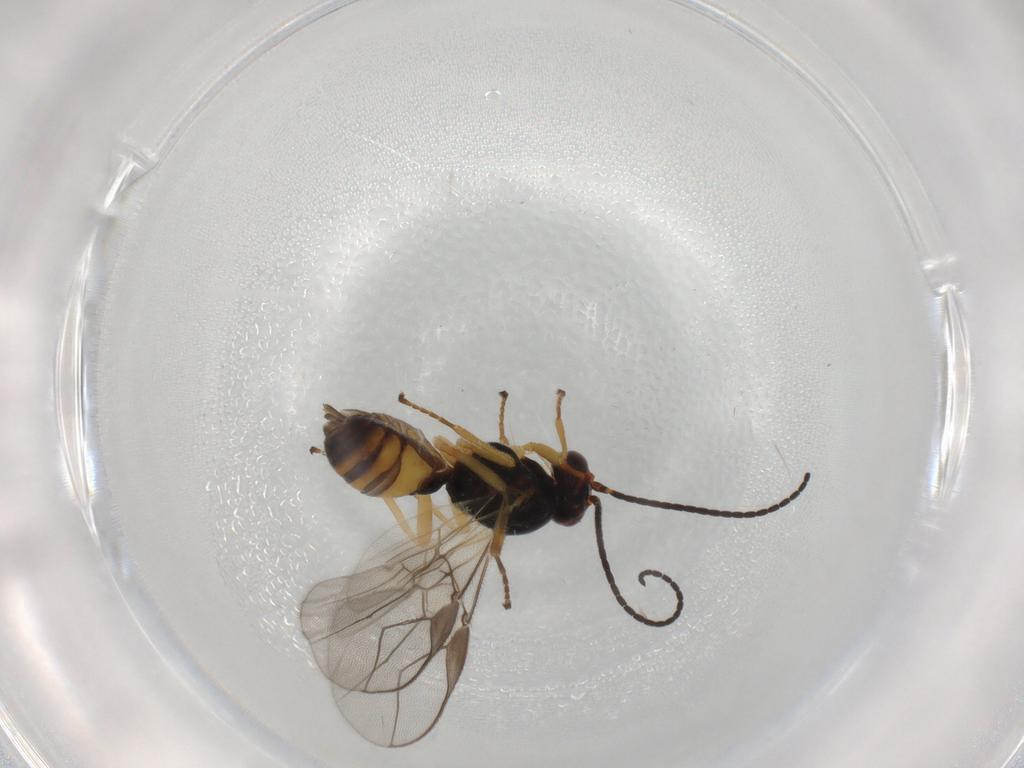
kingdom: Animalia
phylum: Arthropoda
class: Insecta
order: Hymenoptera
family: Braconidae
